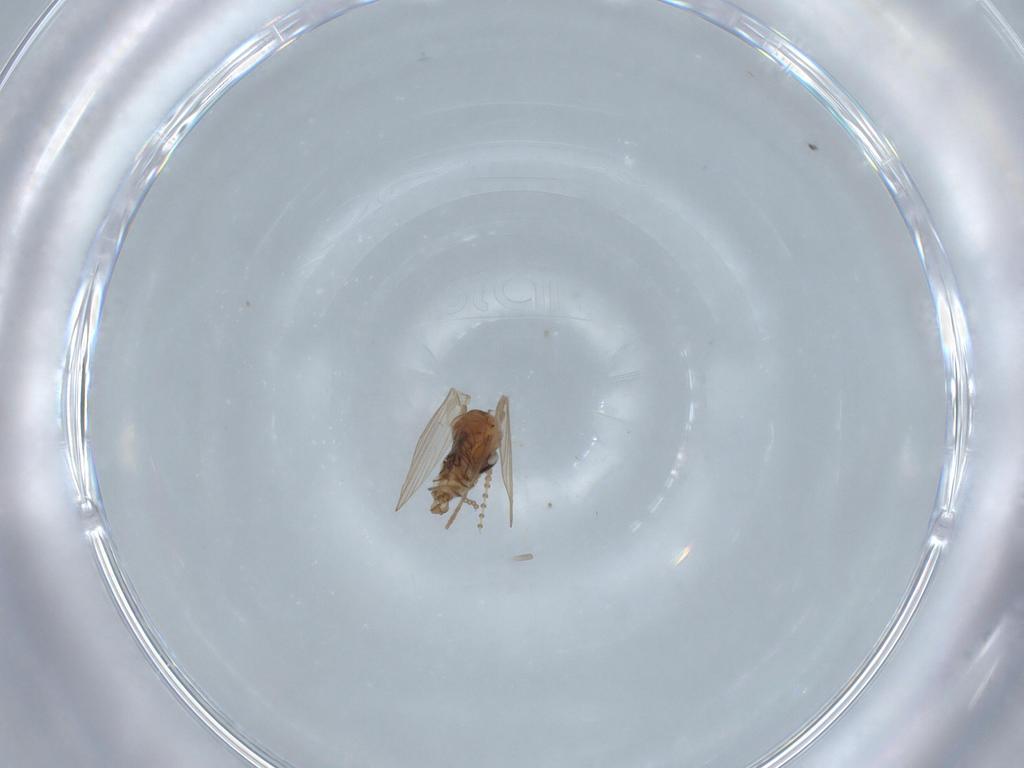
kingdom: Animalia
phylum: Arthropoda
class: Insecta
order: Diptera
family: Psychodidae
